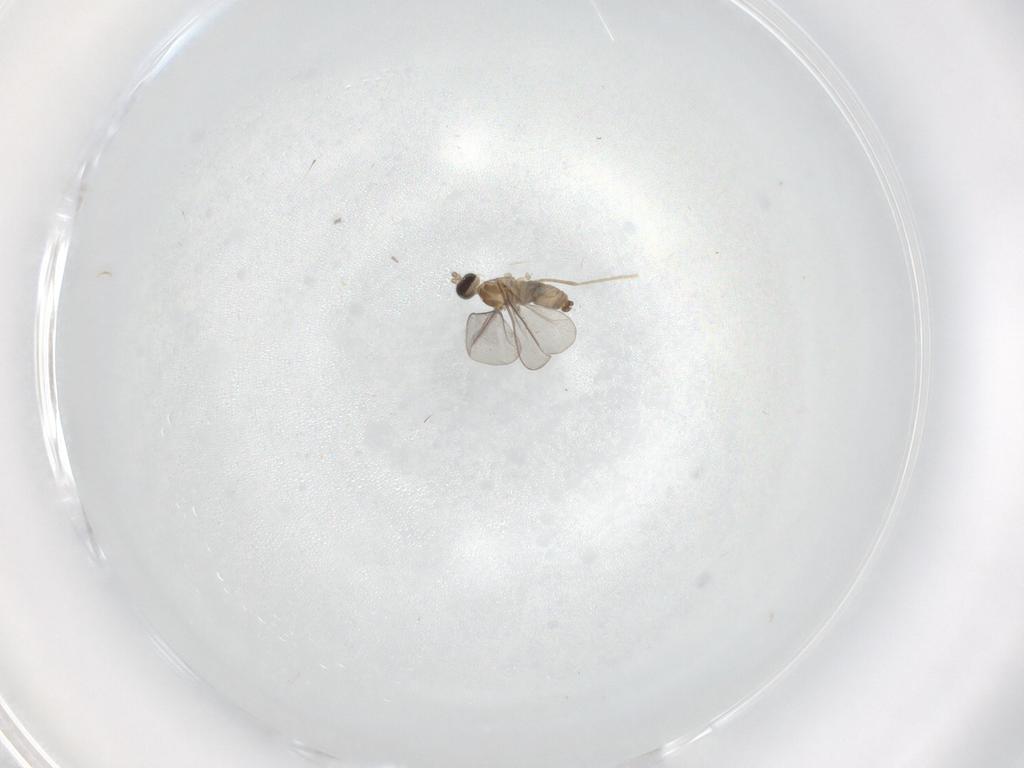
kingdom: Animalia
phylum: Arthropoda
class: Insecta
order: Diptera
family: Cecidomyiidae
